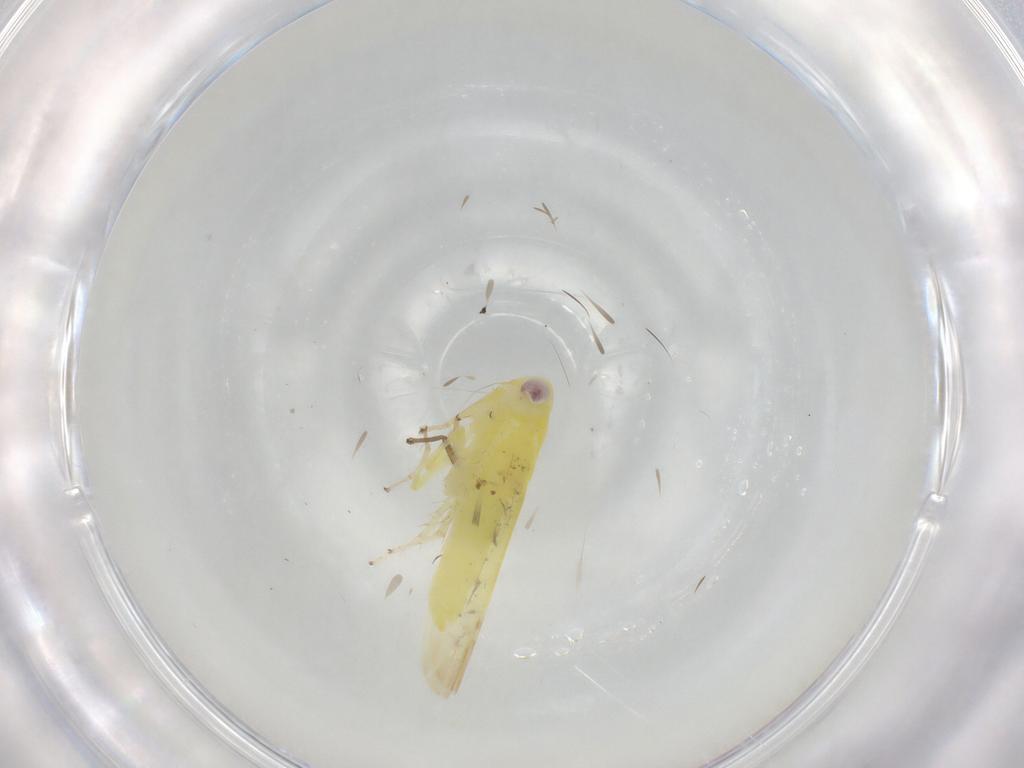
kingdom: Animalia
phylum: Arthropoda
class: Insecta
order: Hemiptera
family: Cicadellidae
